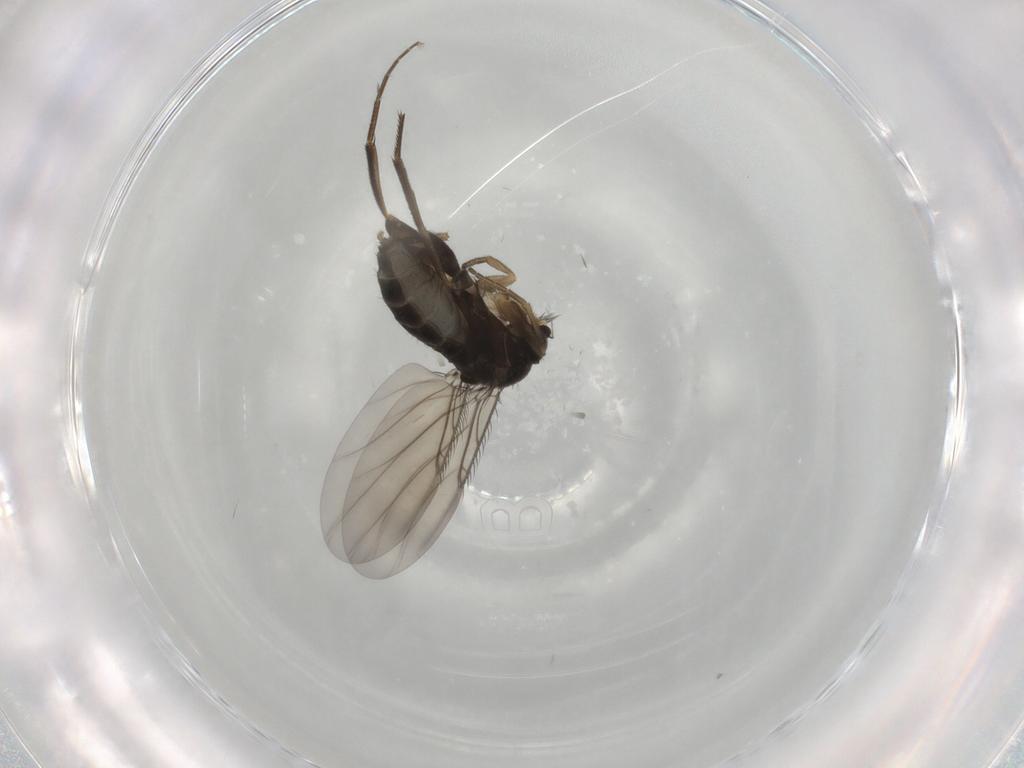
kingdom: Animalia
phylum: Arthropoda
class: Insecta
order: Diptera
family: Phoridae
